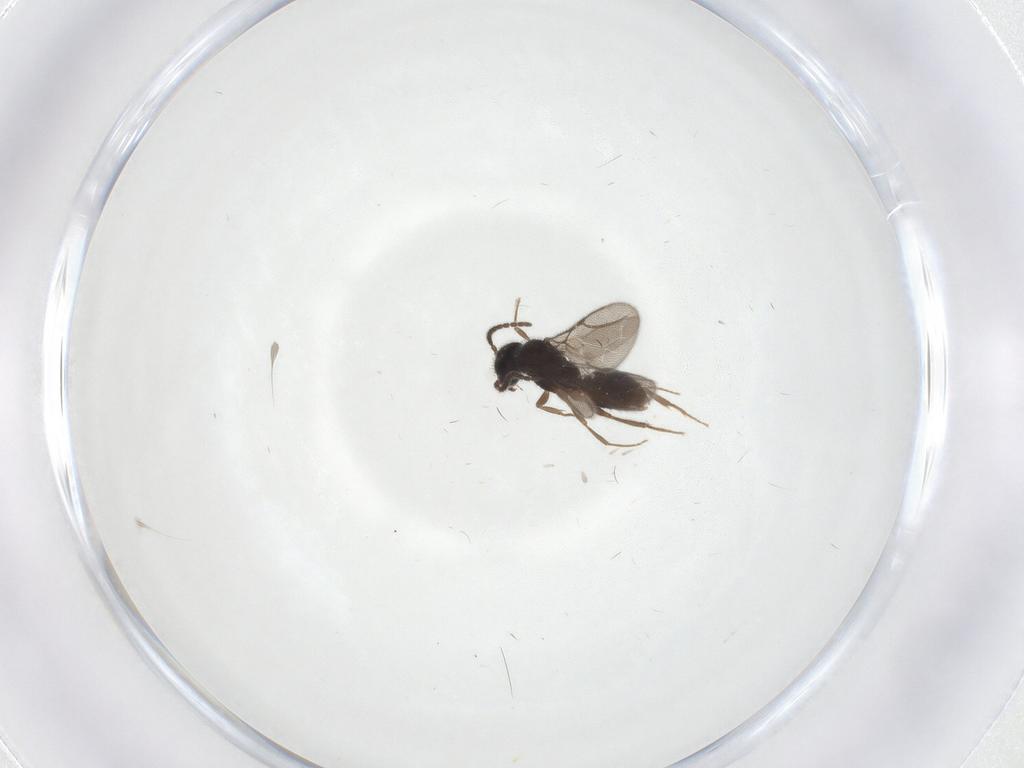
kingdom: Animalia
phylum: Arthropoda
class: Insecta
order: Hymenoptera
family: Bethylidae
